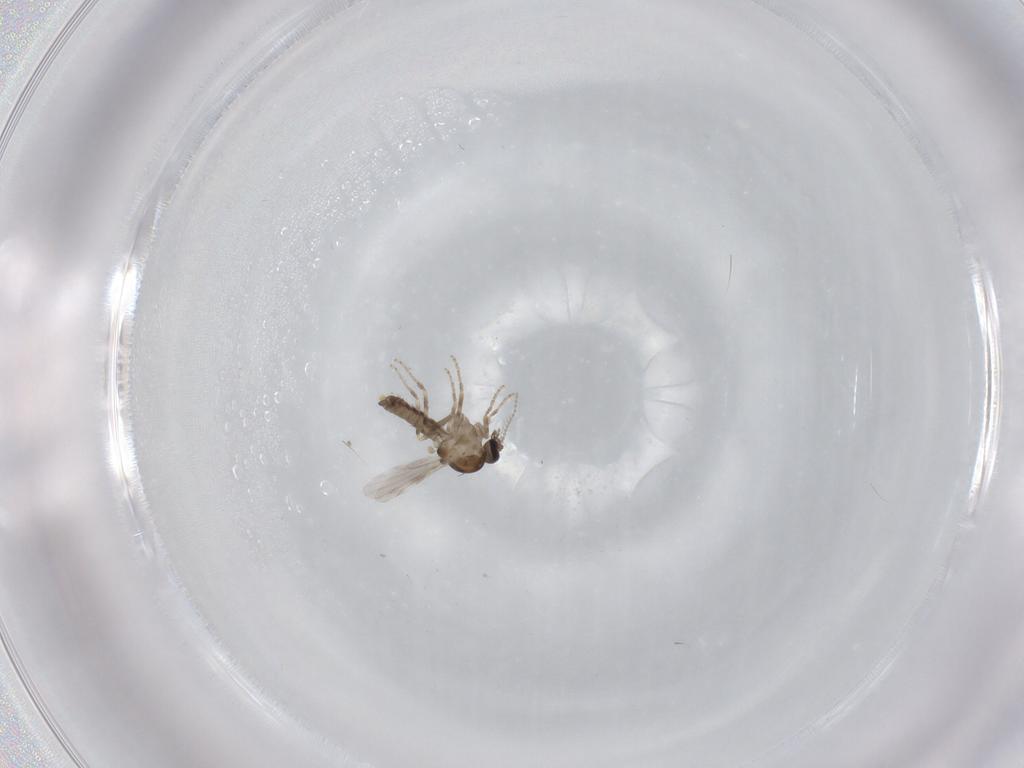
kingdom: Animalia
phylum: Arthropoda
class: Insecta
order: Diptera
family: Ceratopogonidae
